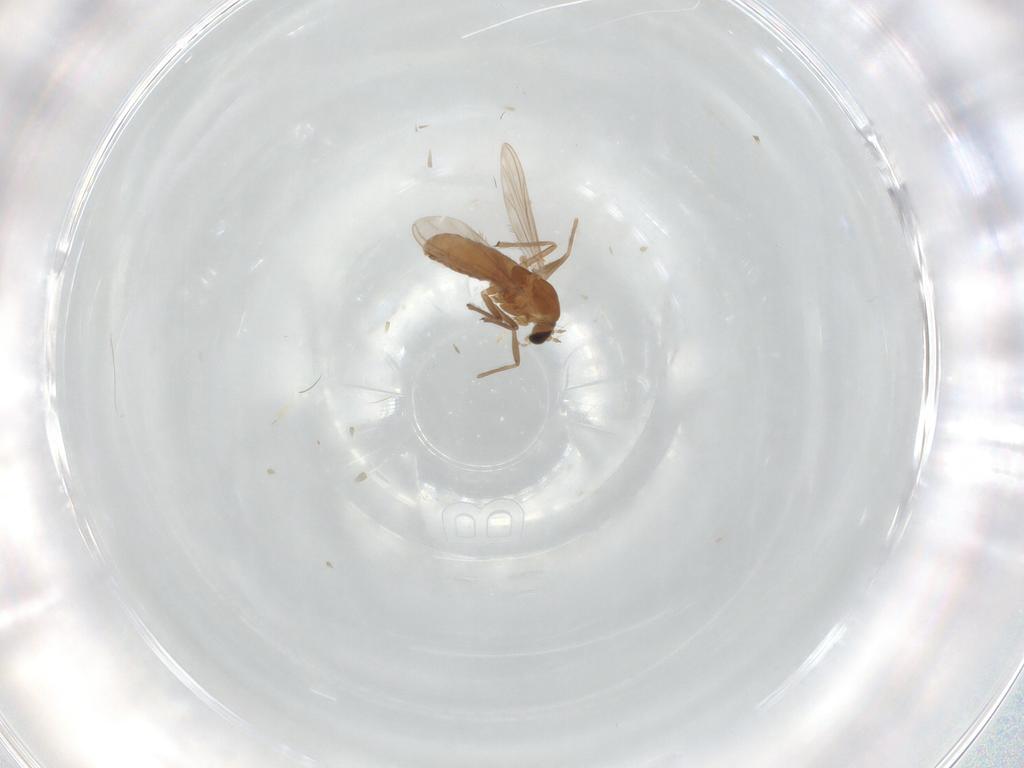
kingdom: Animalia
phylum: Arthropoda
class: Insecta
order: Diptera
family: Chironomidae
